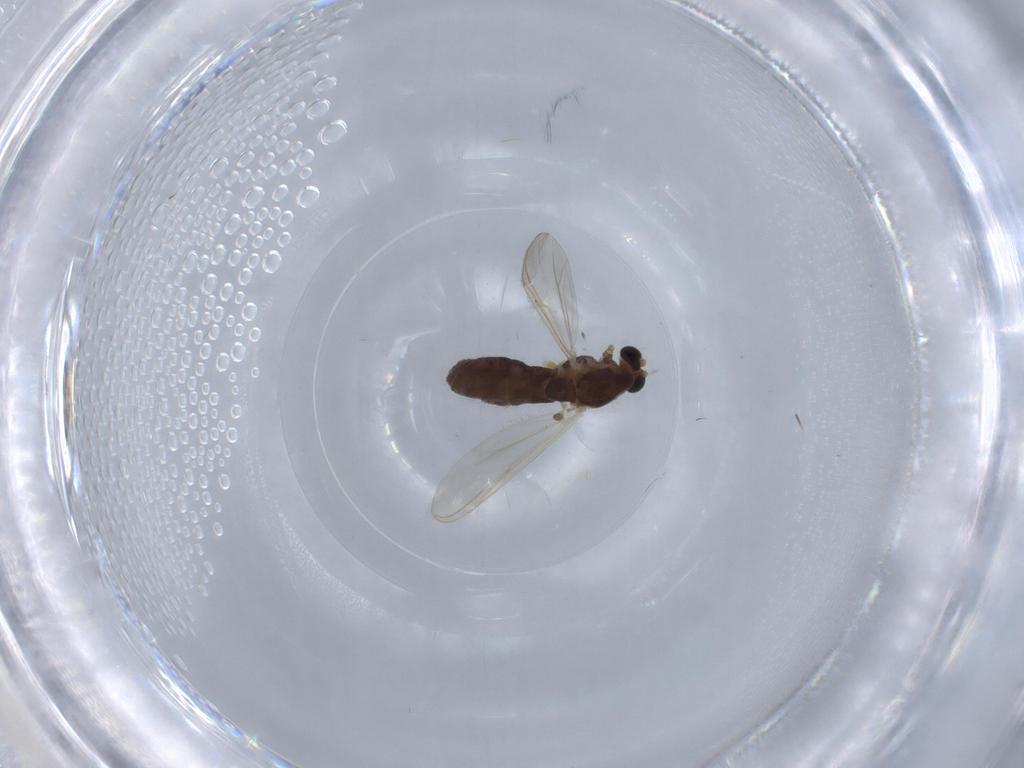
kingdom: Animalia
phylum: Arthropoda
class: Insecta
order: Diptera
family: Chironomidae
